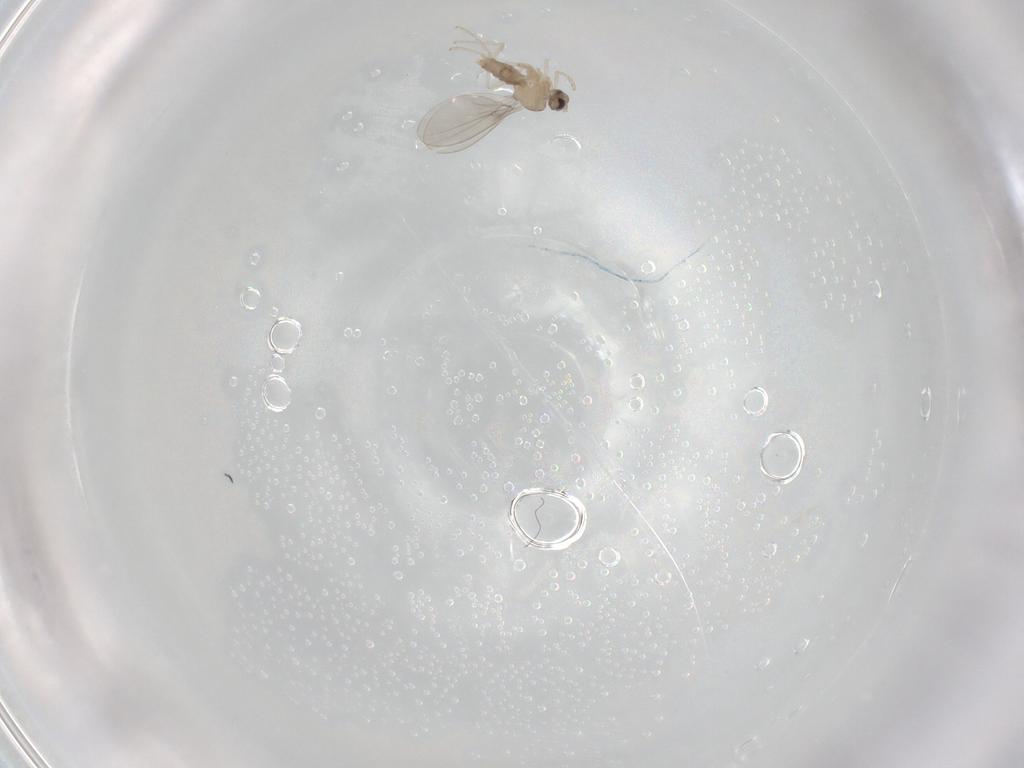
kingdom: Animalia
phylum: Arthropoda
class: Insecta
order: Diptera
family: Cecidomyiidae
